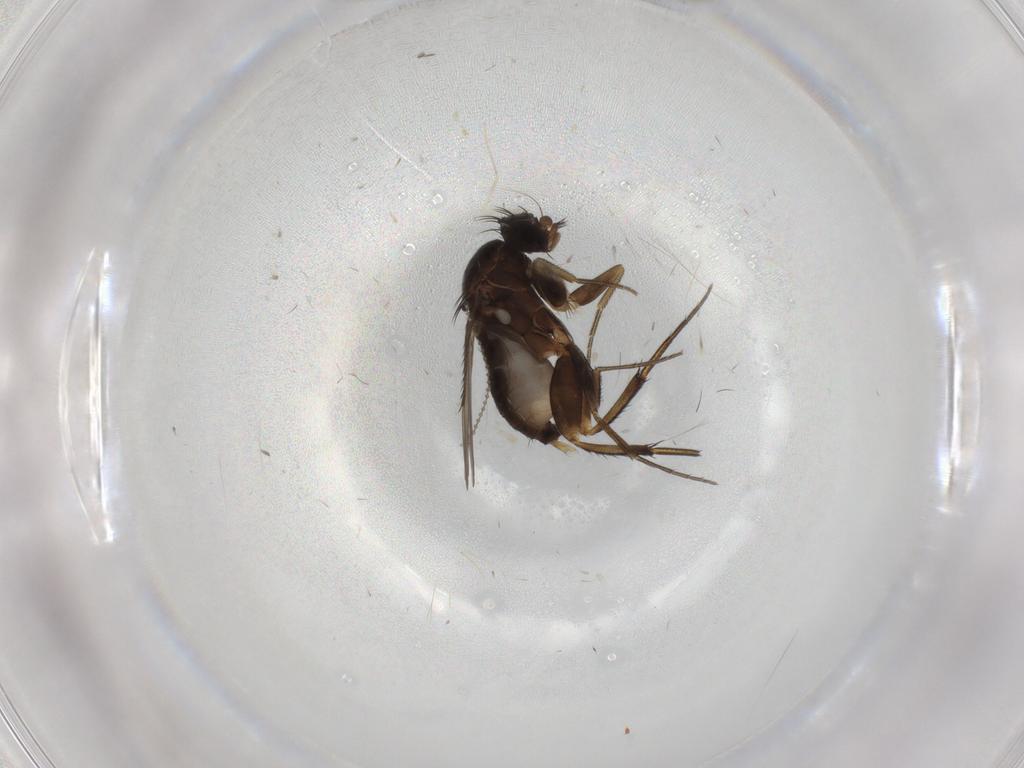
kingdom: Animalia
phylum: Arthropoda
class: Insecta
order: Diptera
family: Phoridae
